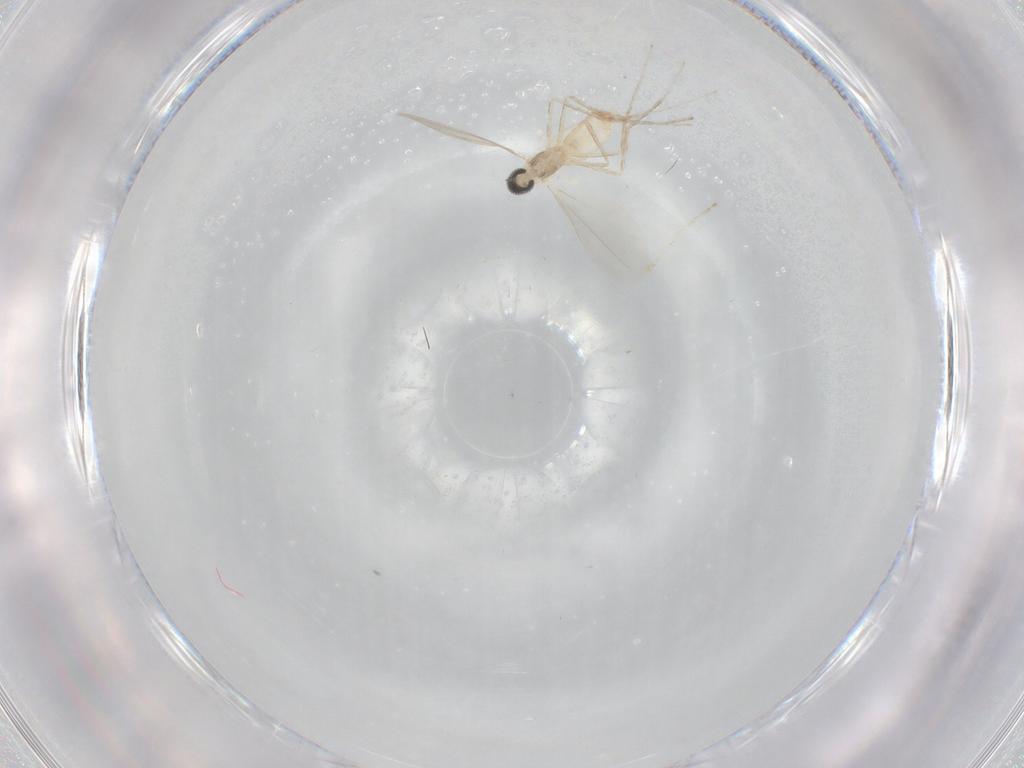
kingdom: Animalia
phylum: Arthropoda
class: Insecta
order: Diptera
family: Cecidomyiidae
